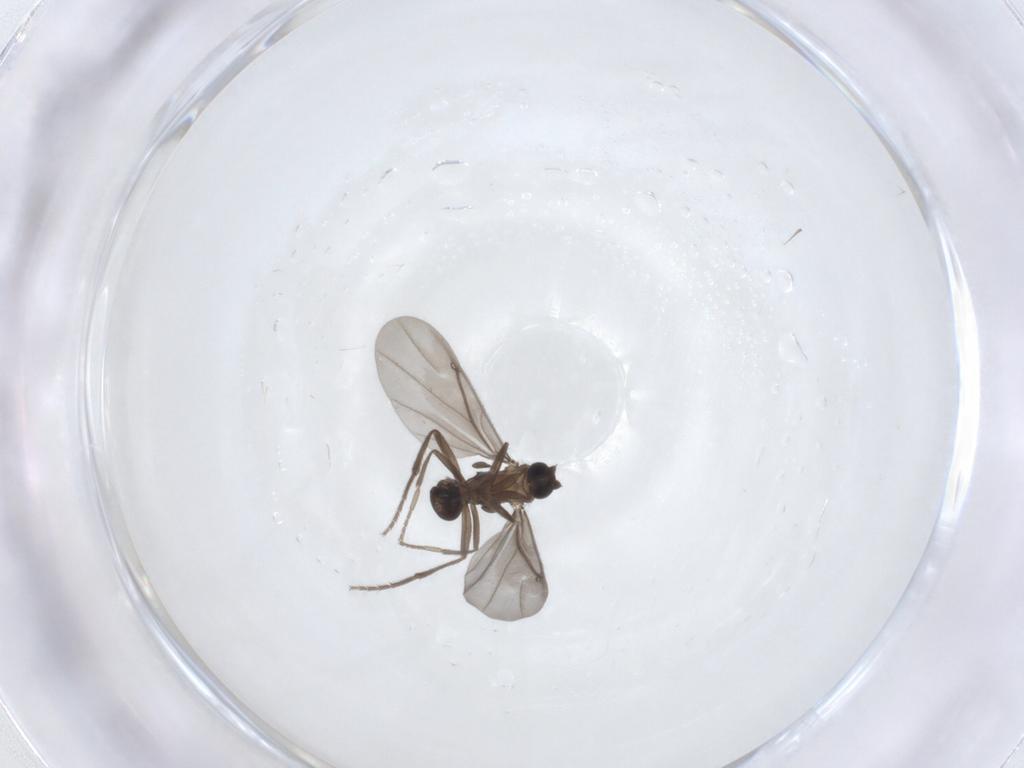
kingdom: Animalia
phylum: Arthropoda
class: Insecta
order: Diptera
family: Phoridae
